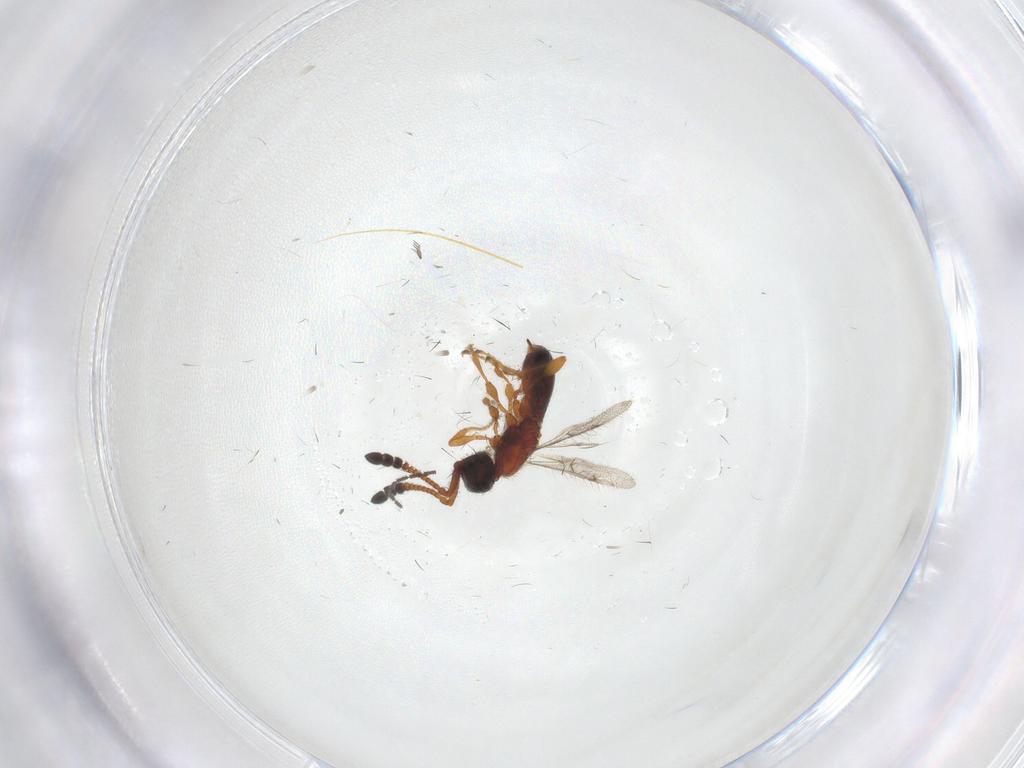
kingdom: Animalia
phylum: Arthropoda
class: Insecta
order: Hymenoptera
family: Diapriidae
